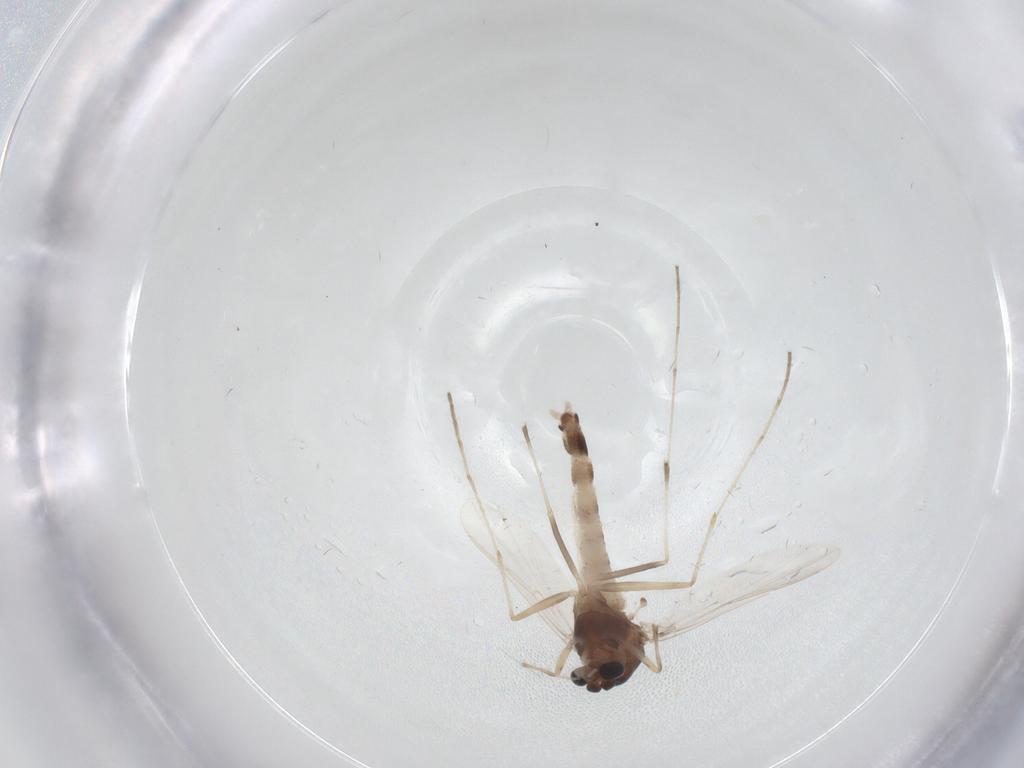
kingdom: Animalia
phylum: Arthropoda
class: Insecta
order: Diptera
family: Chironomidae
